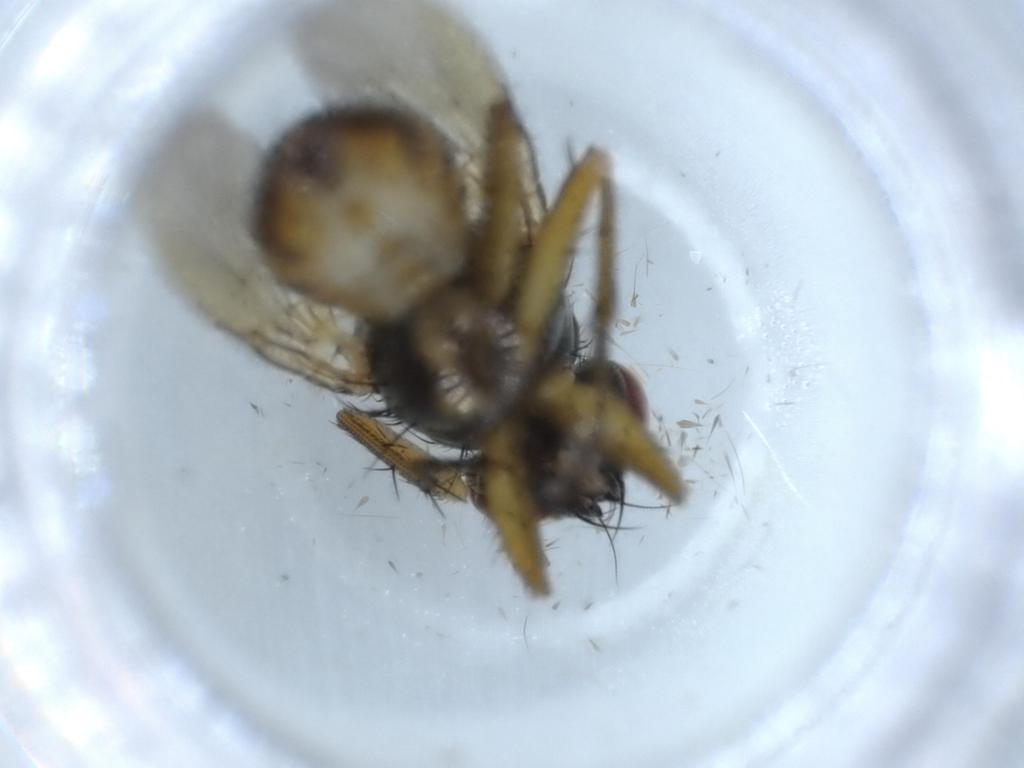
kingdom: Animalia
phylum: Arthropoda
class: Insecta
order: Diptera
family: Muscidae
